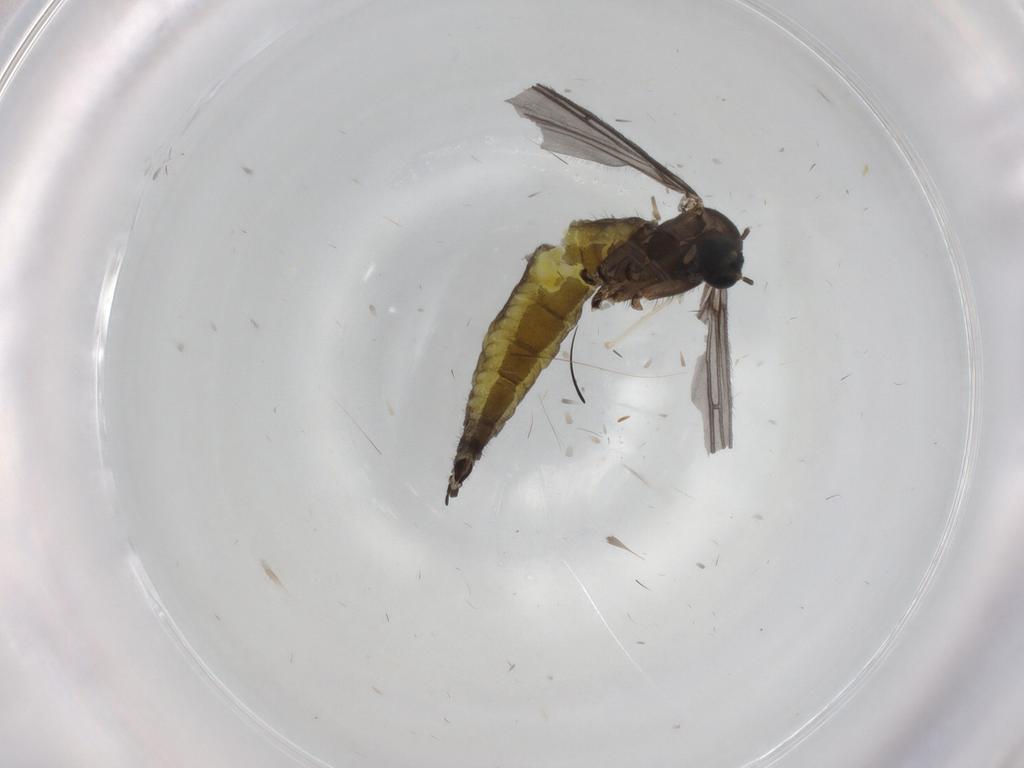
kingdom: Animalia
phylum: Arthropoda
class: Insecta
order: Diptera
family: Sciaridae
